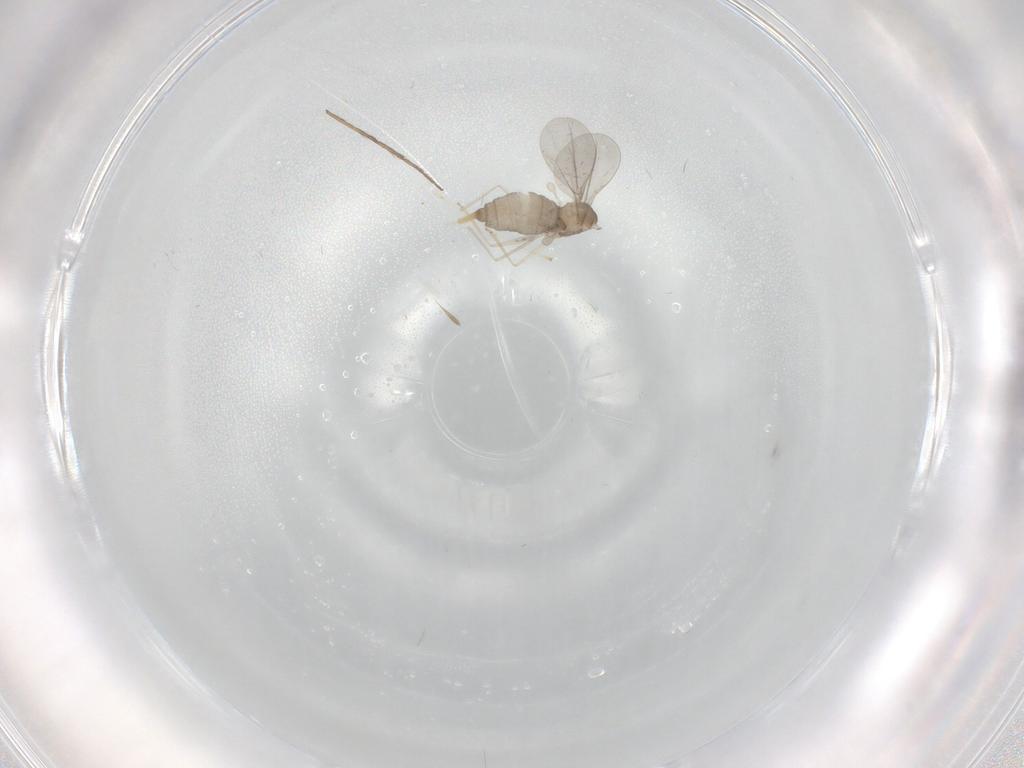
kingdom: Animalia
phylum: Arthropoda
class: Insecta
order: Diptera
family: Cecidomyiidae
